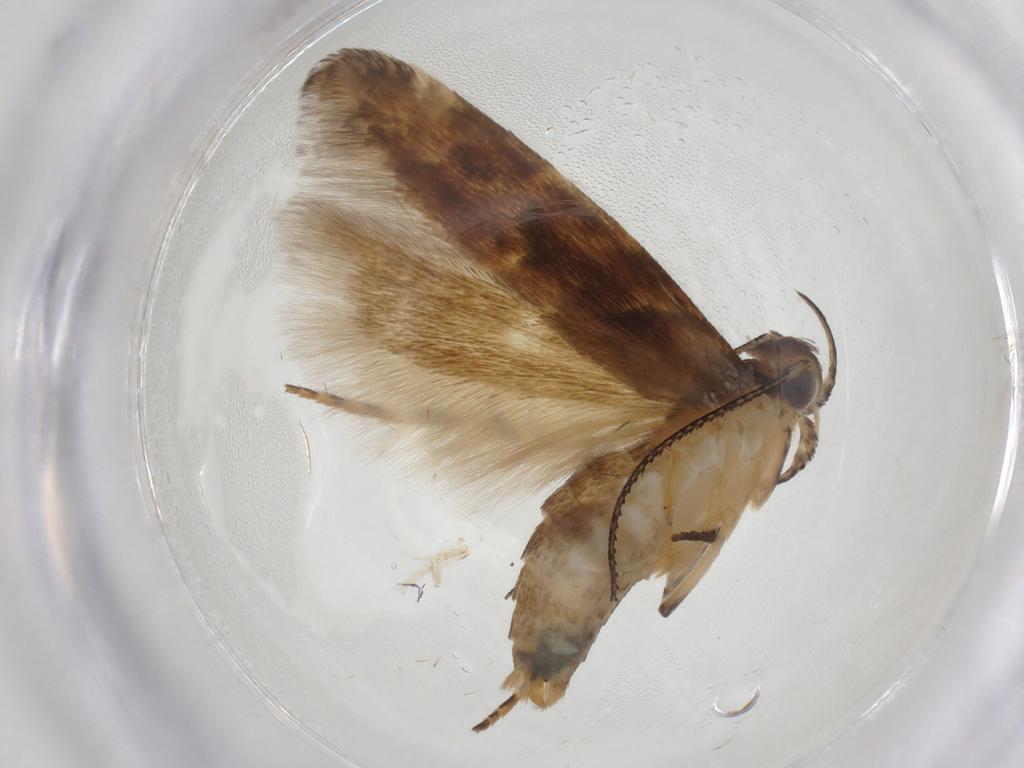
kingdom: Animalia
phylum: Arthropoda
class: Insecta
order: Lepidoptera
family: Gelechiidae
